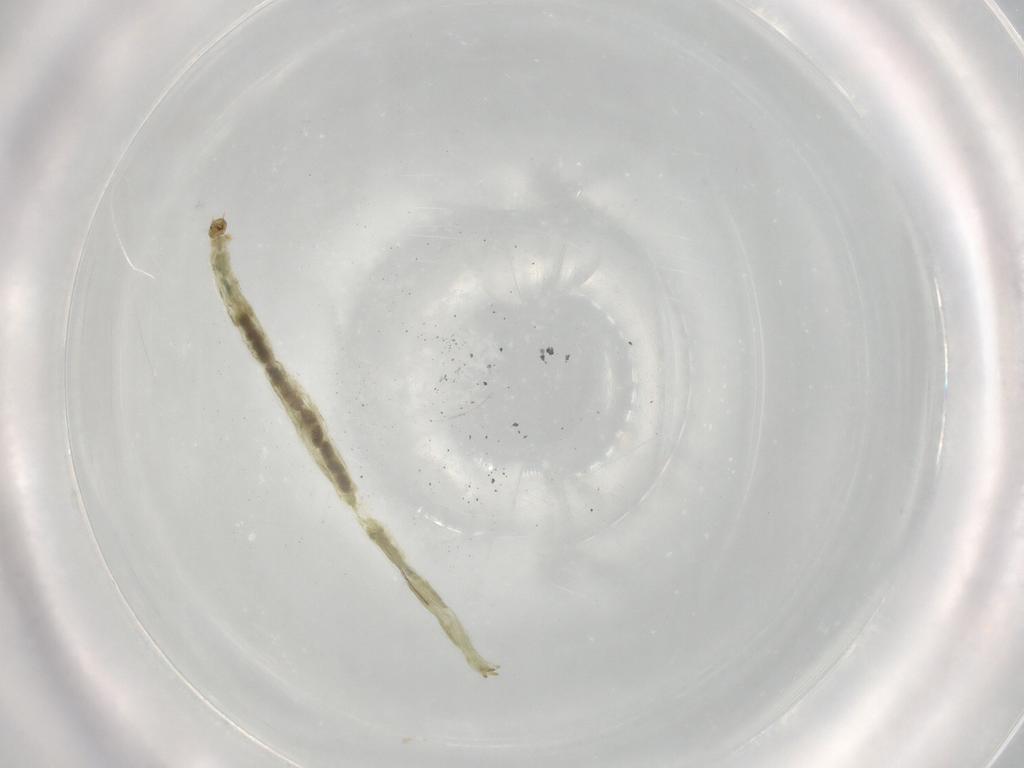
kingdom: Animalia
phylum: Arthropoda
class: Insecta
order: Diptera
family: Chironomidae
